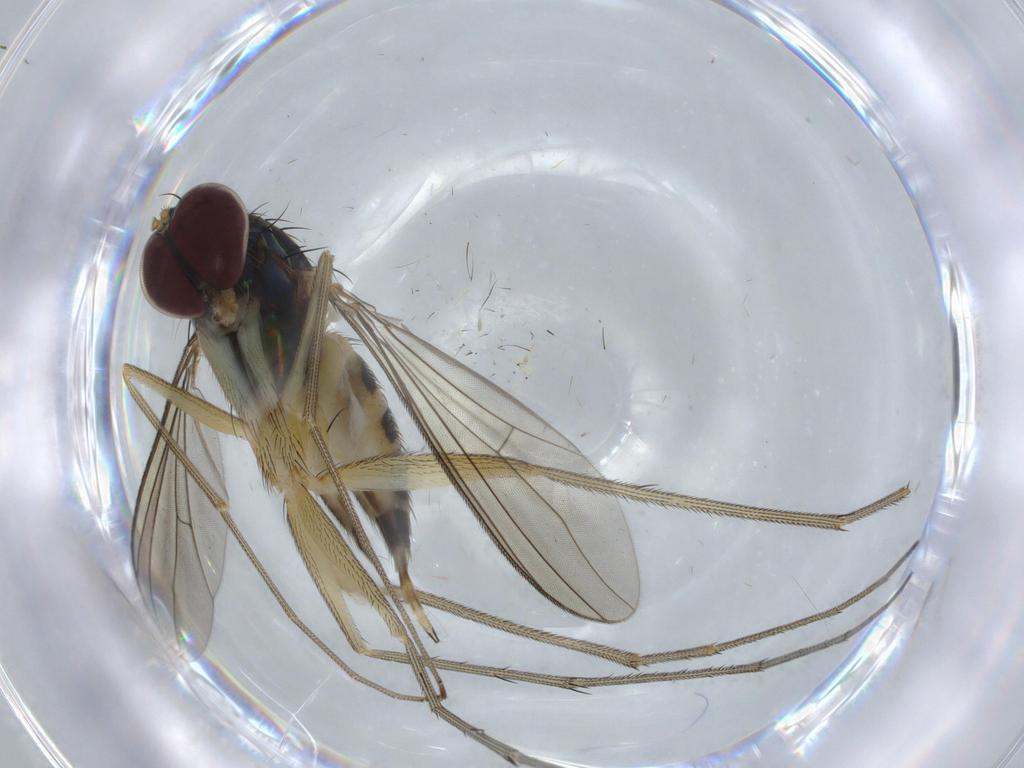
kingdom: Animalia
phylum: Arthropoda
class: Insecta
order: Diptera
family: Dolichopodidae
